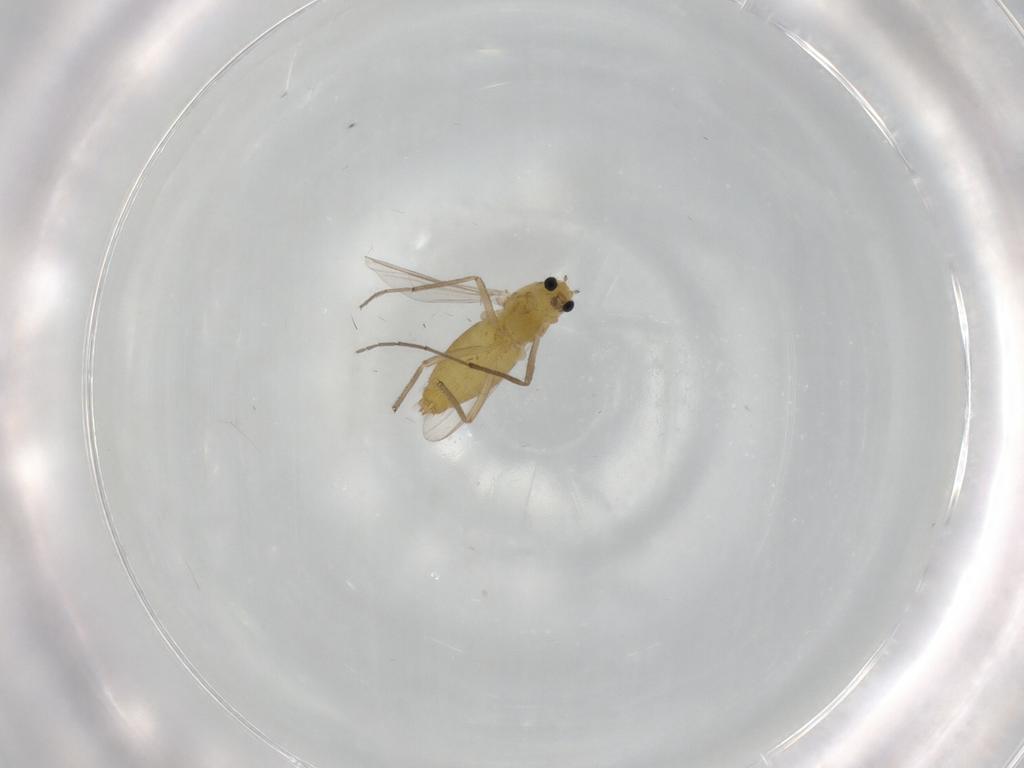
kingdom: Animalia
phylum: Arthropoda
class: Insecta
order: Diptera
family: Chironomidae
